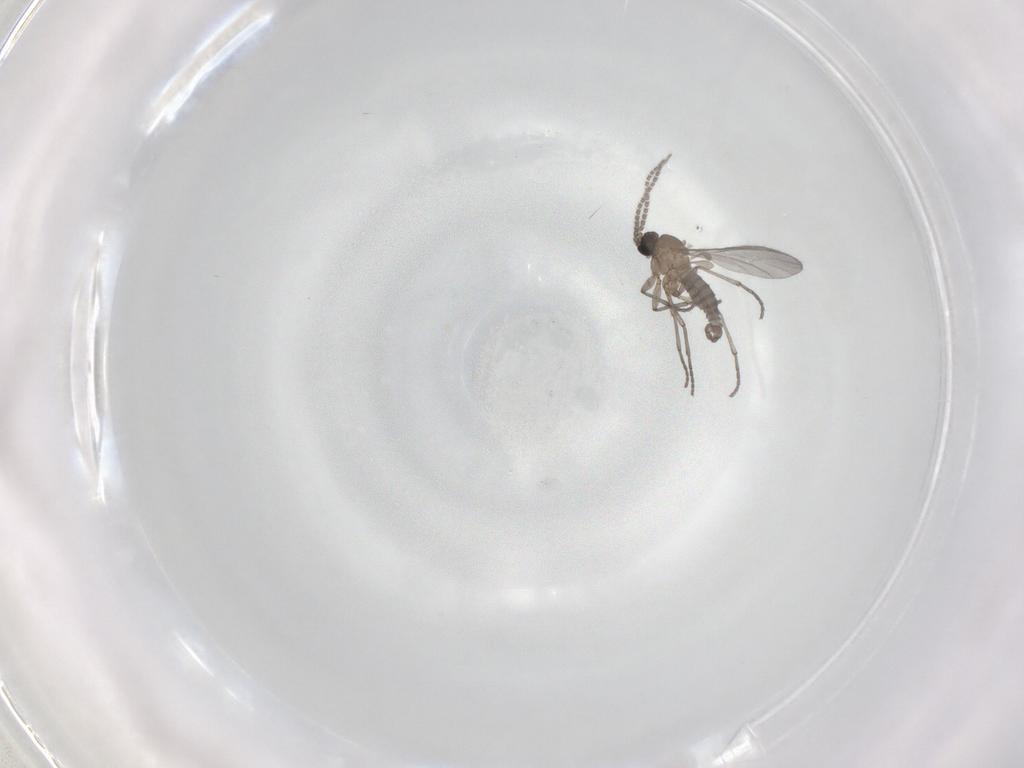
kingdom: Animalia
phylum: Arthropoda
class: Insecta
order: Diptera
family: Sciaridae
